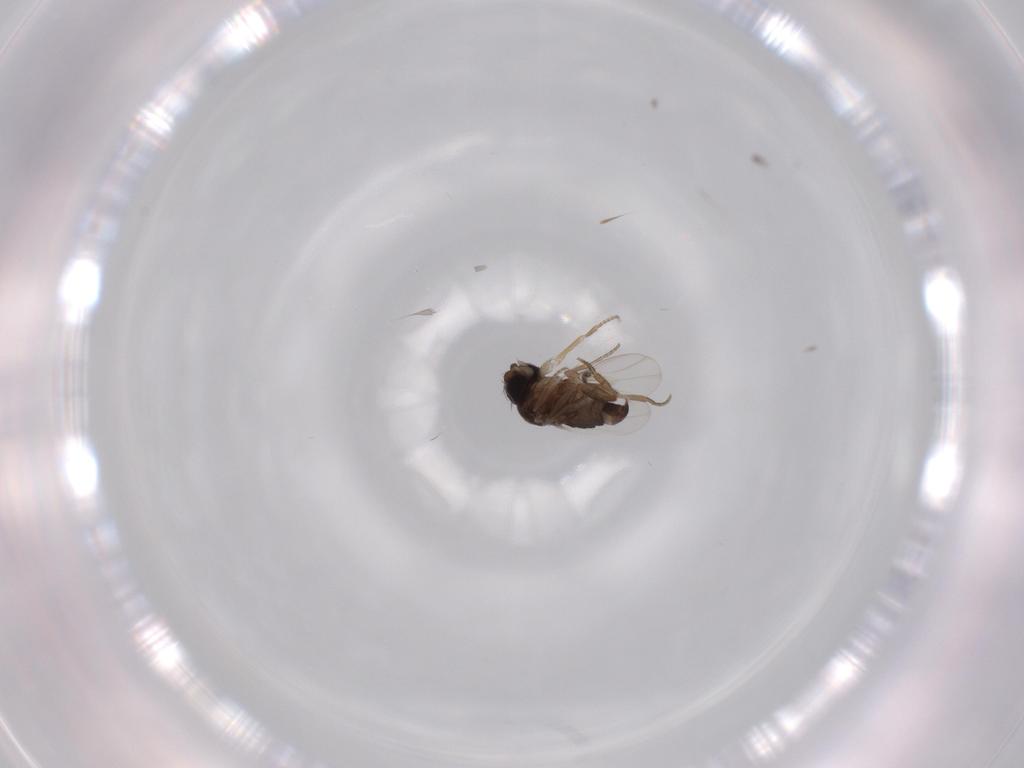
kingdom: Animalia
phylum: Arthropoda
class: Insecta
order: Diptera
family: Phoridae
